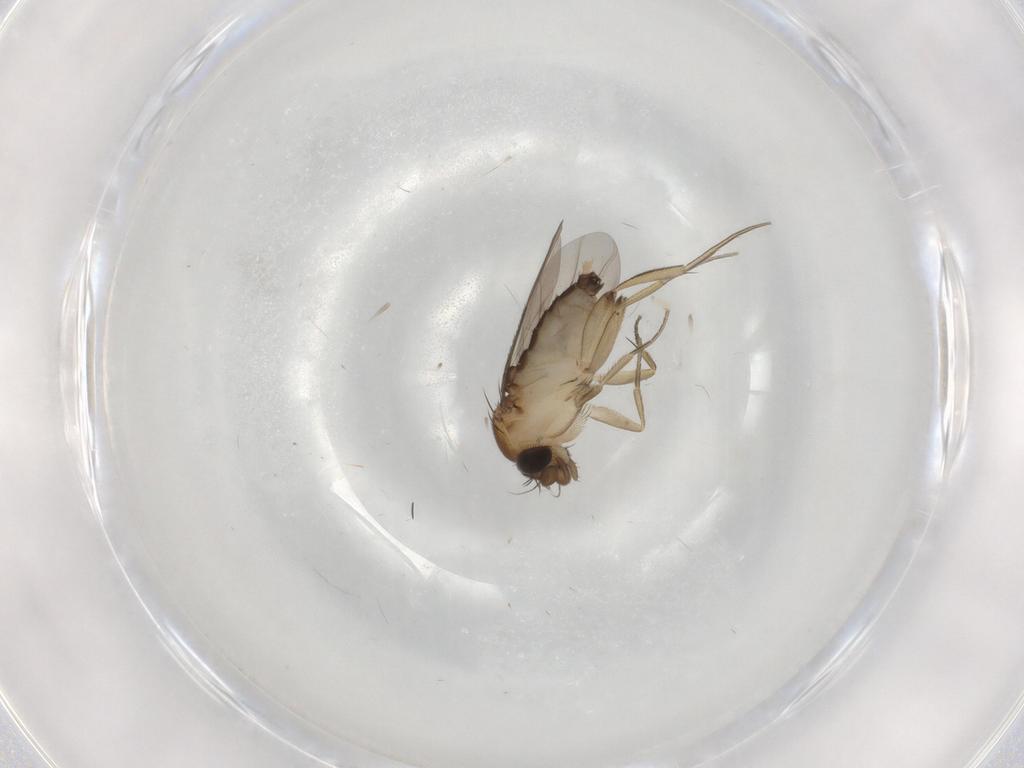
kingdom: Animalia
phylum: Arthropoda
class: Insecta
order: Diptera
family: Phoridae
